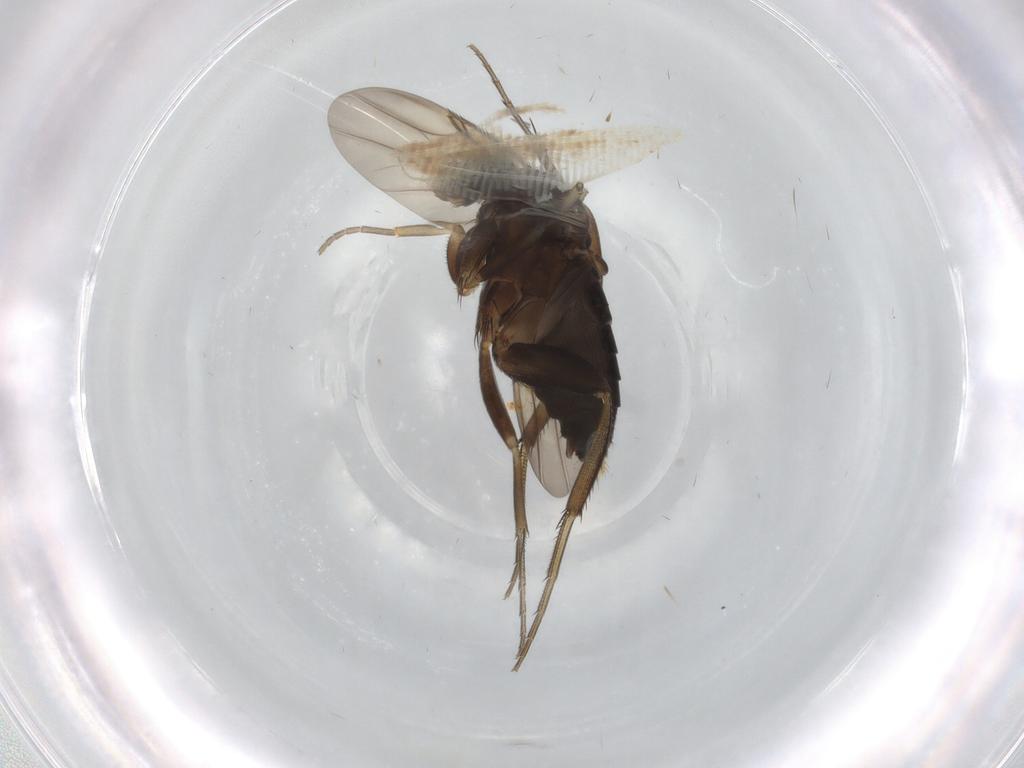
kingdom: Animalia
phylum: Arthropoda
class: Insecta
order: Diptera
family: Phoridae
